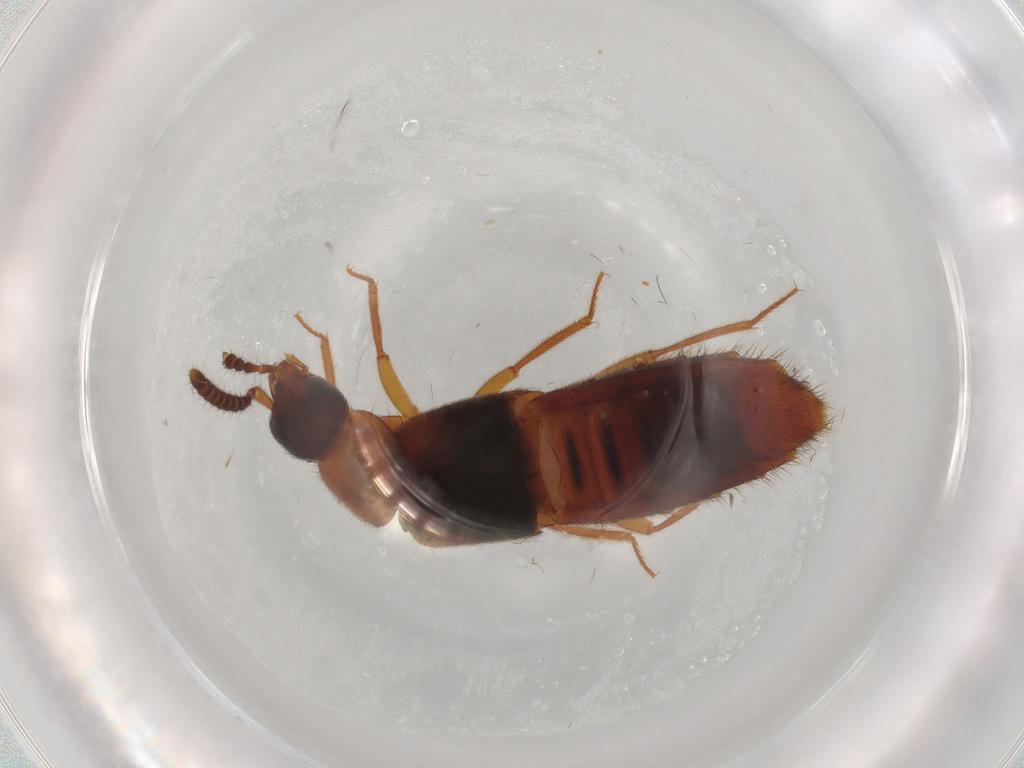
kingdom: Animalia
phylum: Arthropoda
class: Insecta
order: Coleoptera
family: Staphylinidae
